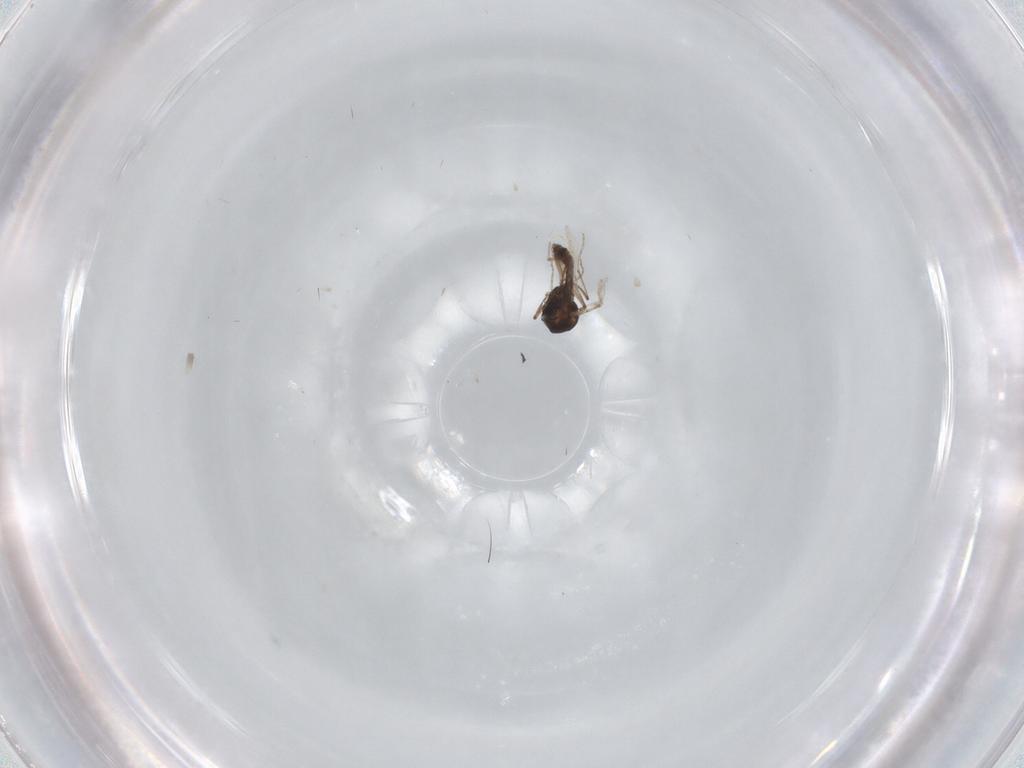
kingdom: Animalia
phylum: Arthropoda
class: Insecta
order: Diptera
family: Ceratopogonidae
